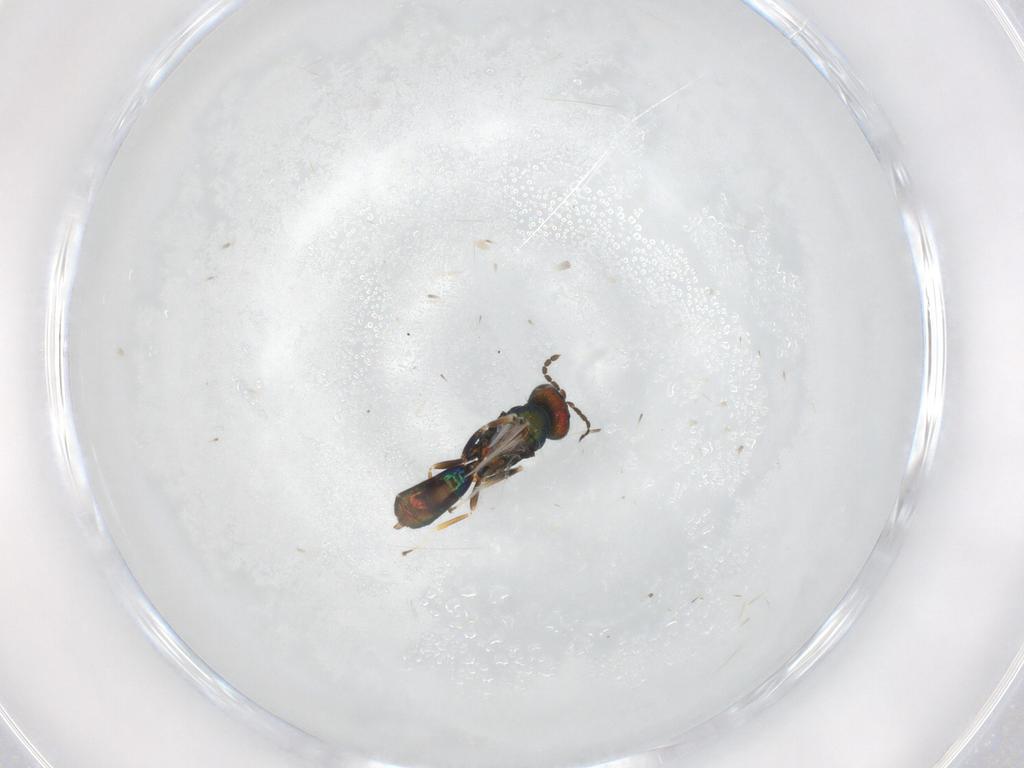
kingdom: Animalia
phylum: Arthropoda
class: Insecta
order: Hymenoptera
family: Eulophidae
